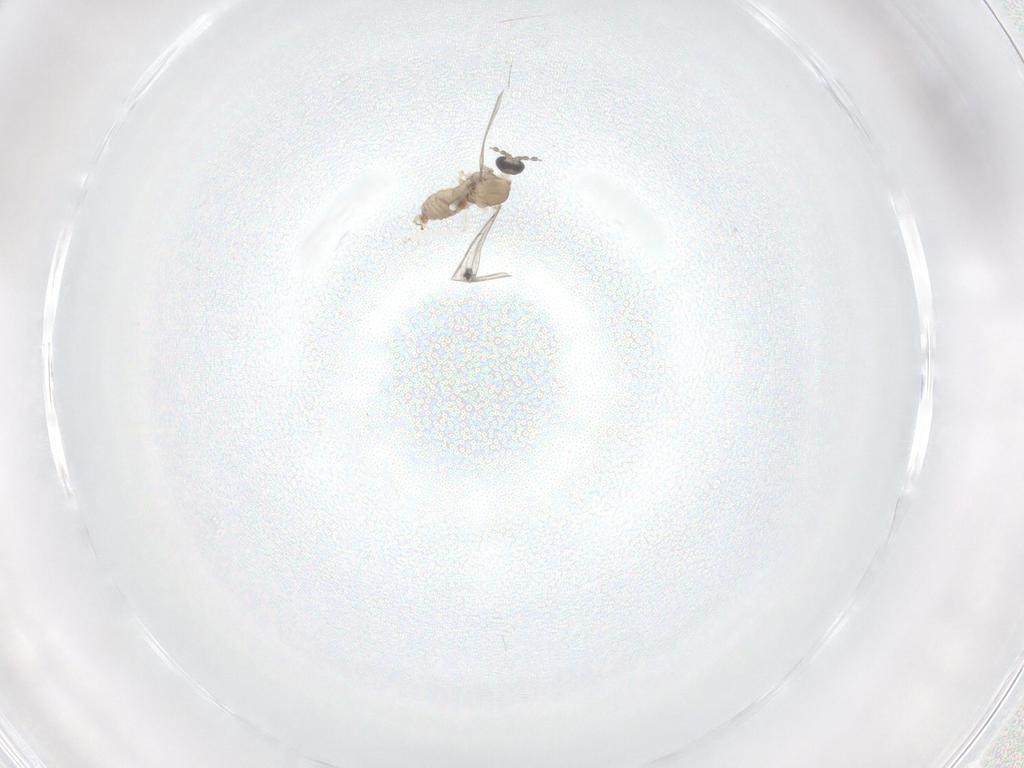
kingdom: Animalia
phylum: Arthropoda
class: Insecta
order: Diptera
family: Cecidomyiidae
